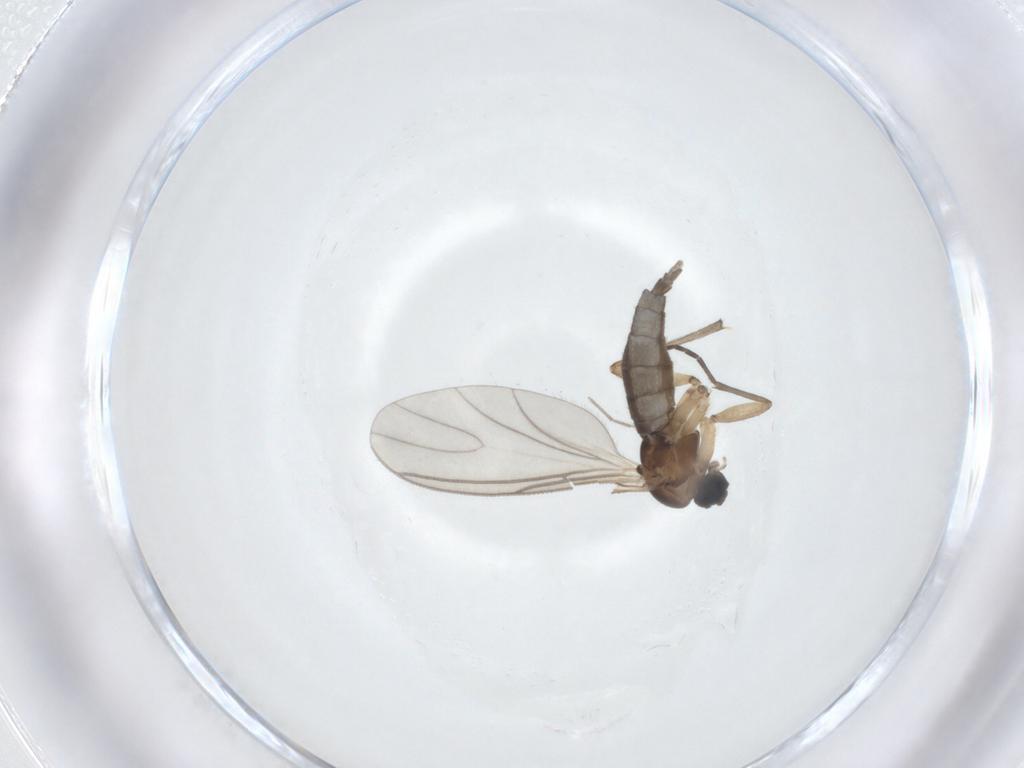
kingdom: Animalia
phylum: Arthropoda
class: Insecta
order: Diptera
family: Sciaridae
